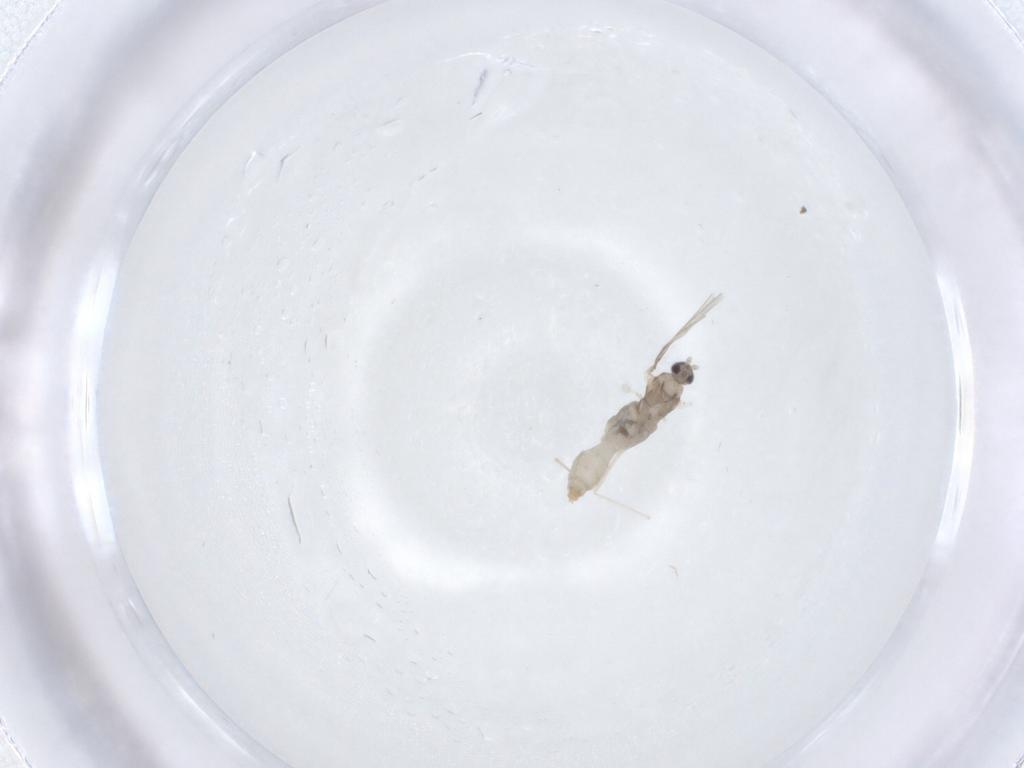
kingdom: Animalia
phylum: Arthropoda
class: Insecta
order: Diptera
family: Cecidomyiidae
